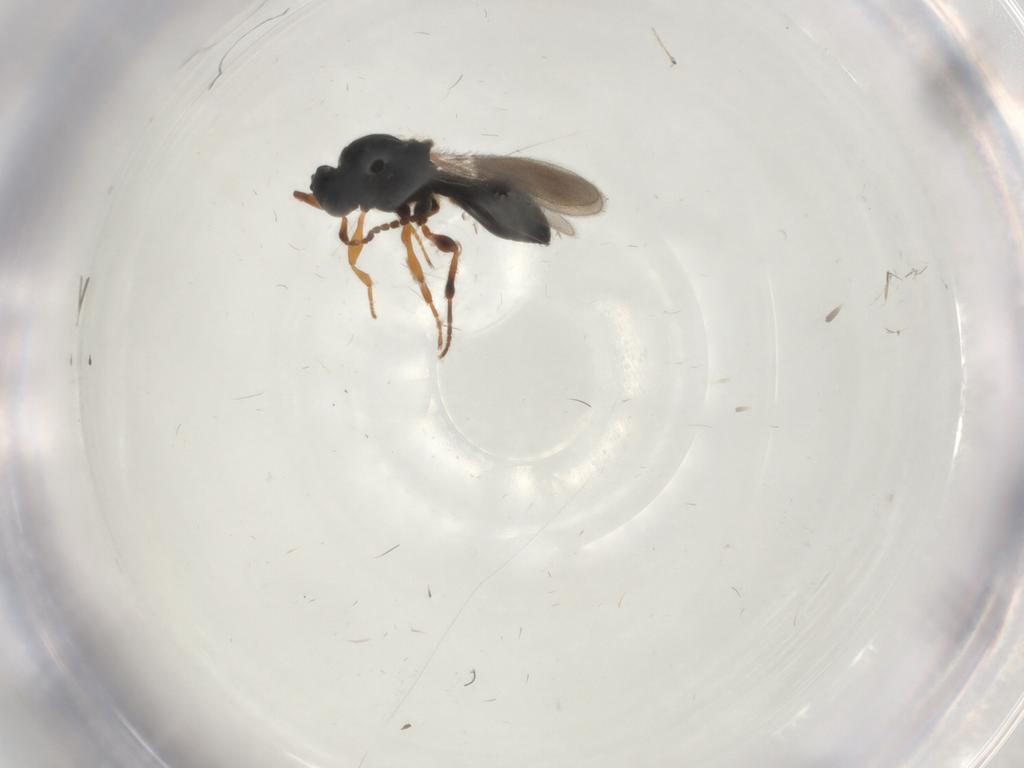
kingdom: Animalia
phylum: Arthropoda
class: Insecta
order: Hymenoptera
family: Platygastridae
